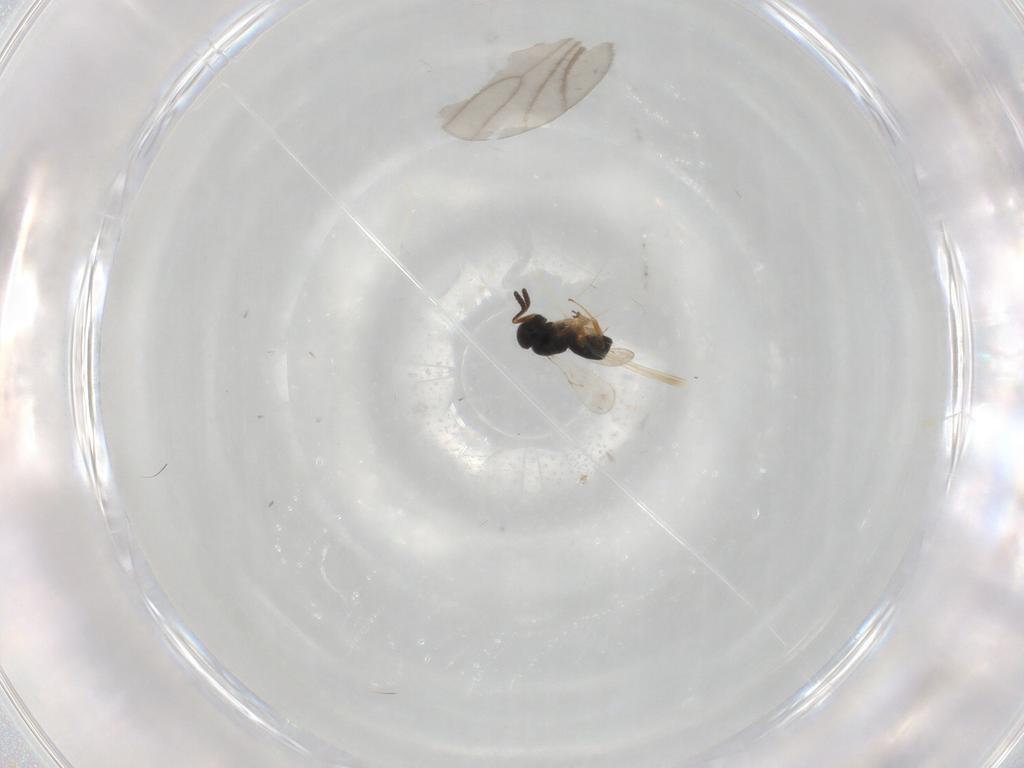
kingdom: Animalia
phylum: Arthropoda
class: Insecta
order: Hymenoptera
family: Scelionidae
